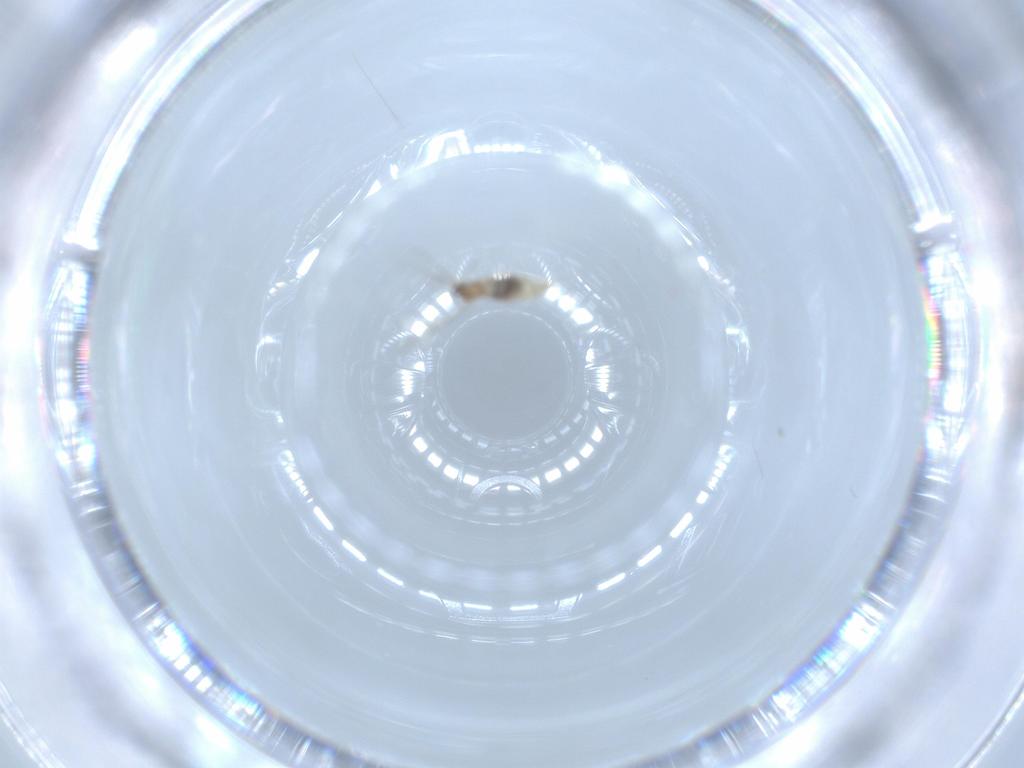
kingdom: Animalia
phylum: Arthropoda
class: Insecta
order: Diptera
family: Cecidomyiidae
